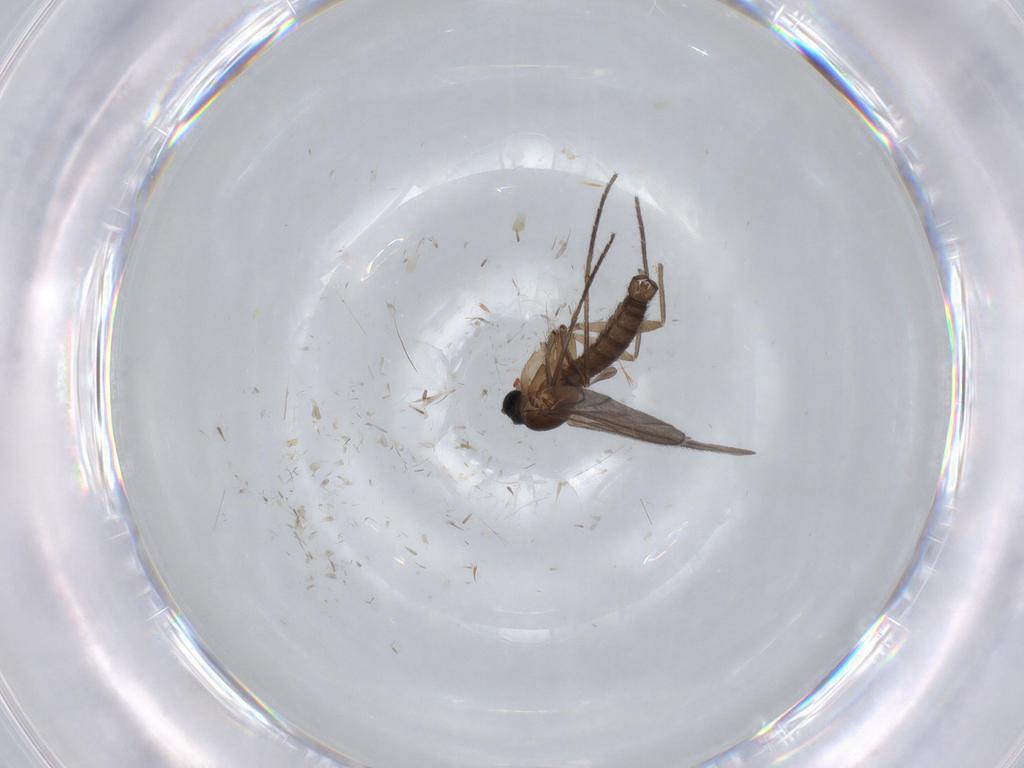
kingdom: Animalia
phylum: Arthropoda
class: Insecta
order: Diptera
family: Sciaridae
